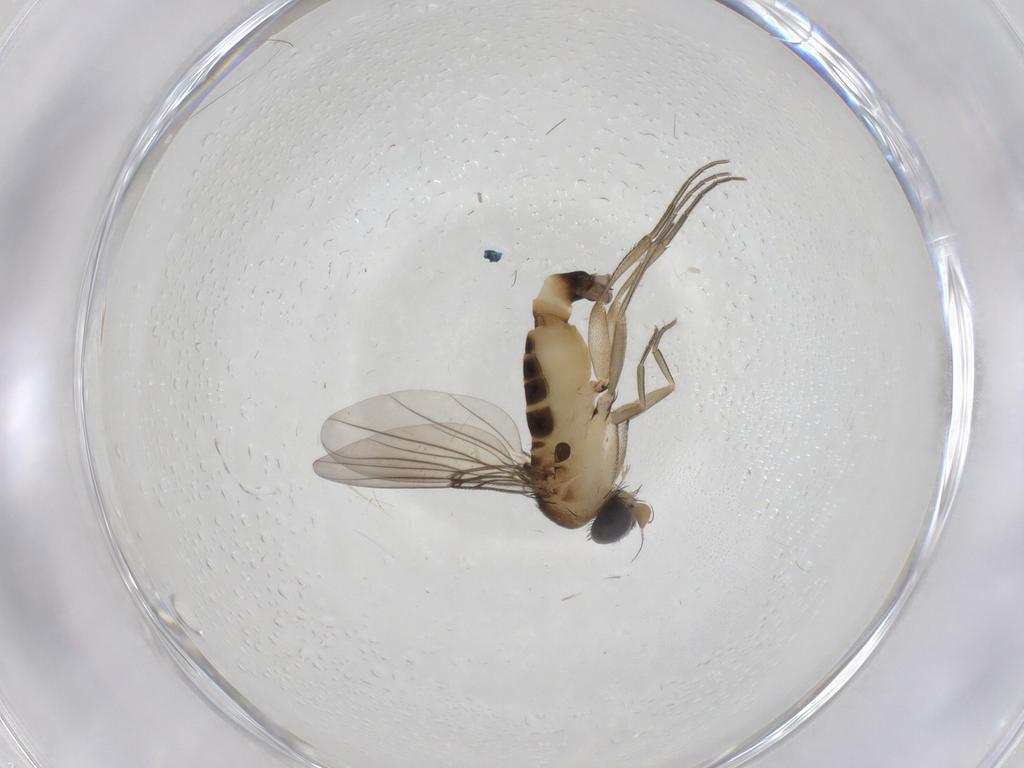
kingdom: Animalia
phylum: Arthropoda
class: Insecta
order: Diptera
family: Phoridae
